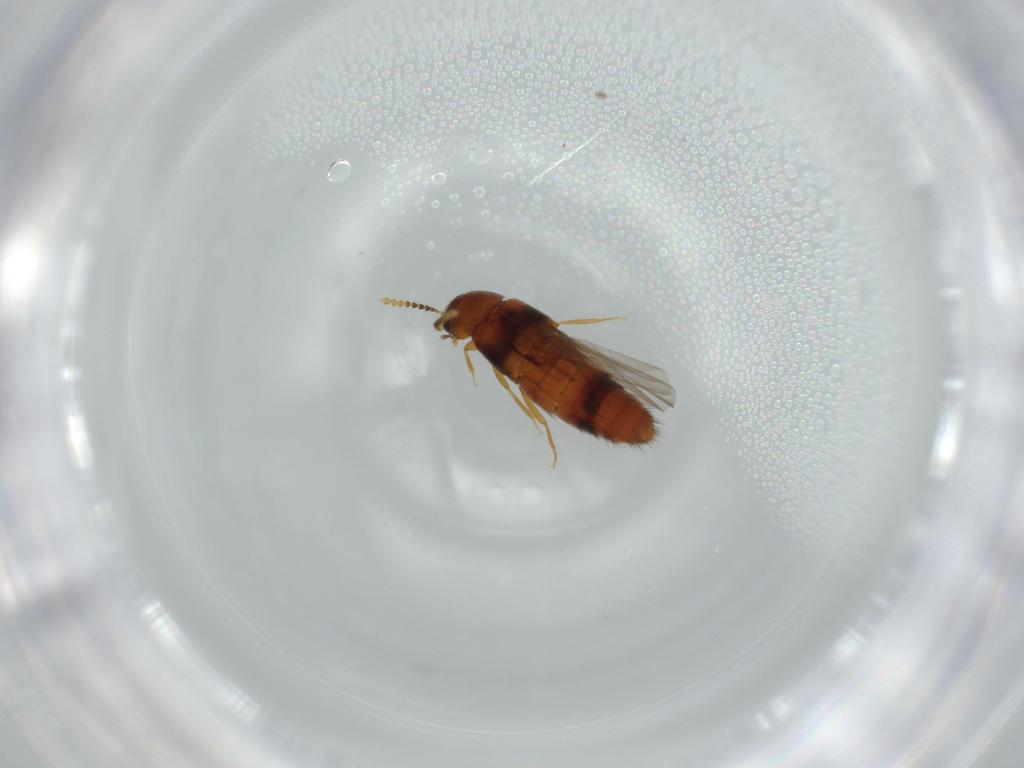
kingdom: Animalia
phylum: Arthropoda
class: Insecta
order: Coleoptera
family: Staphylinidae
